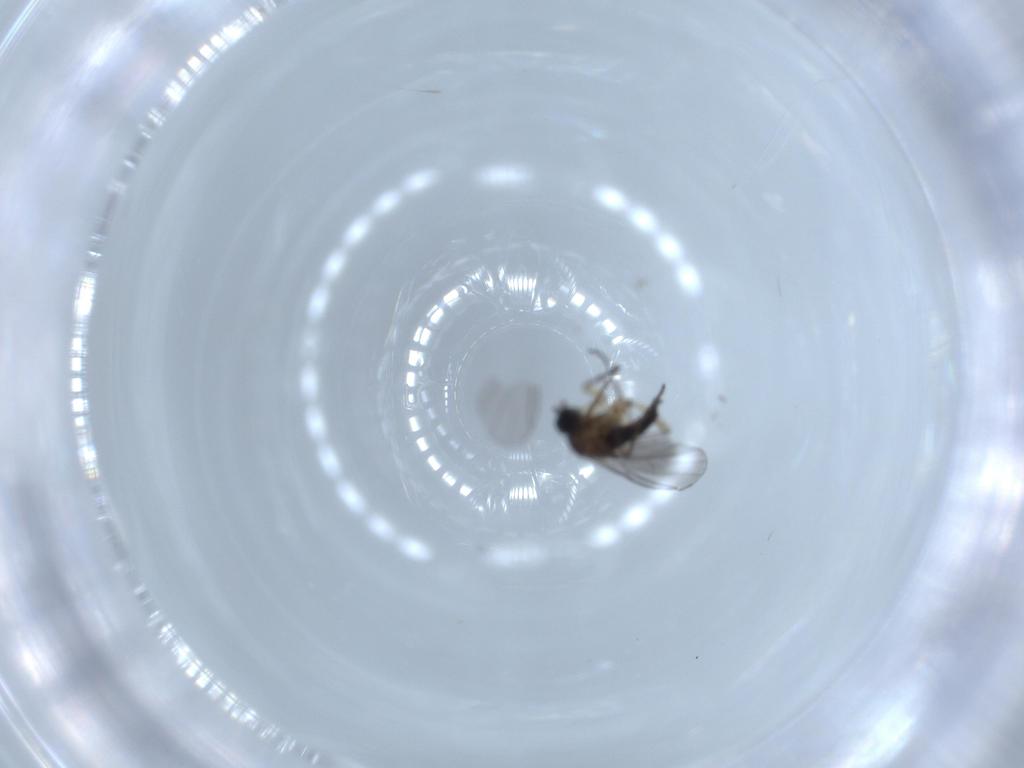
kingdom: Animalia
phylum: Arthropoda
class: Insecta
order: Diptera
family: Sciaridae
